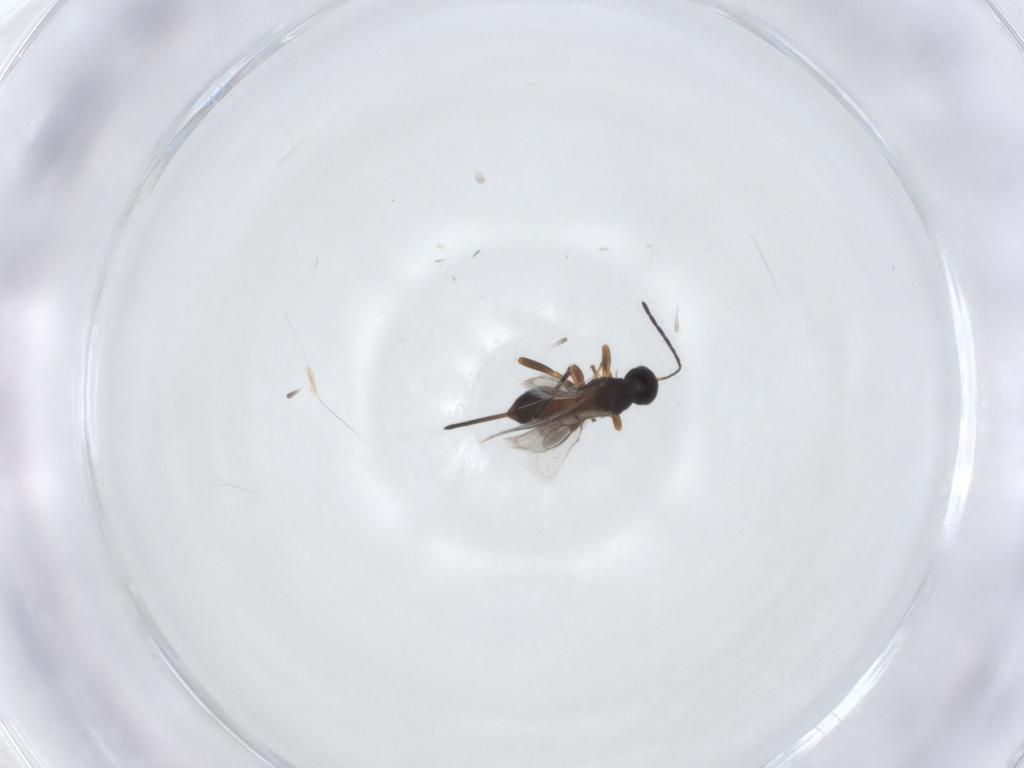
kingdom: Animalia
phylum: Arthropoda
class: Insecta
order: Hymenoptera
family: Braconidae
